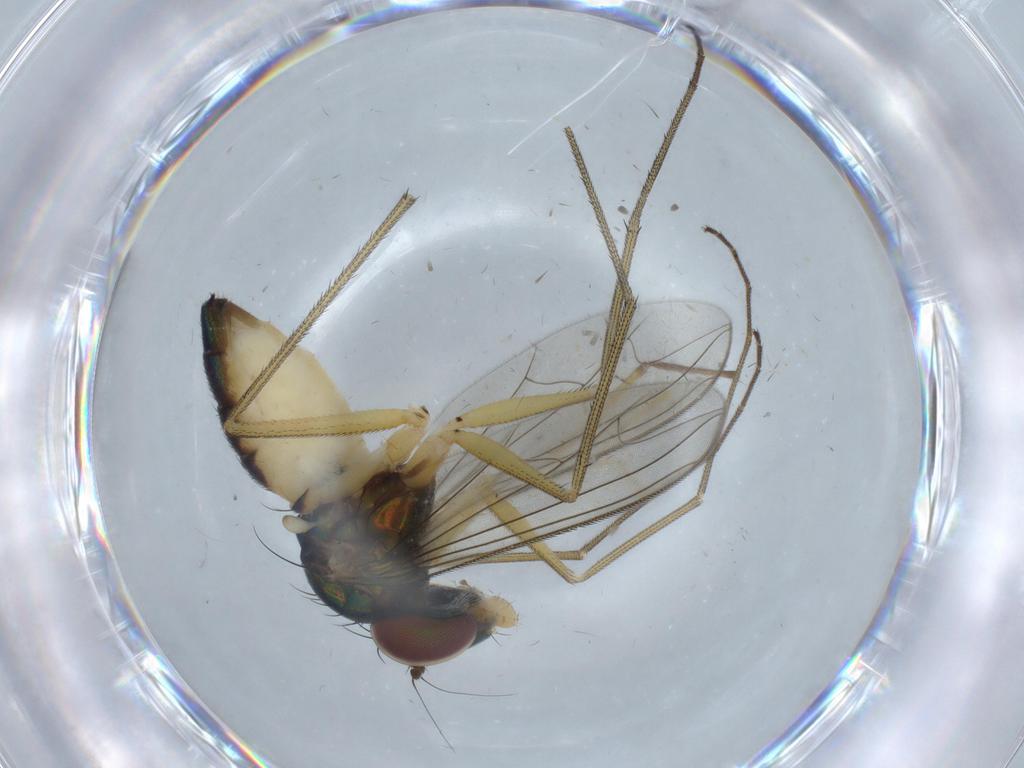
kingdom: Animalia
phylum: Arthropoda
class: Insecta
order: Diptera
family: Dolichopodidae
